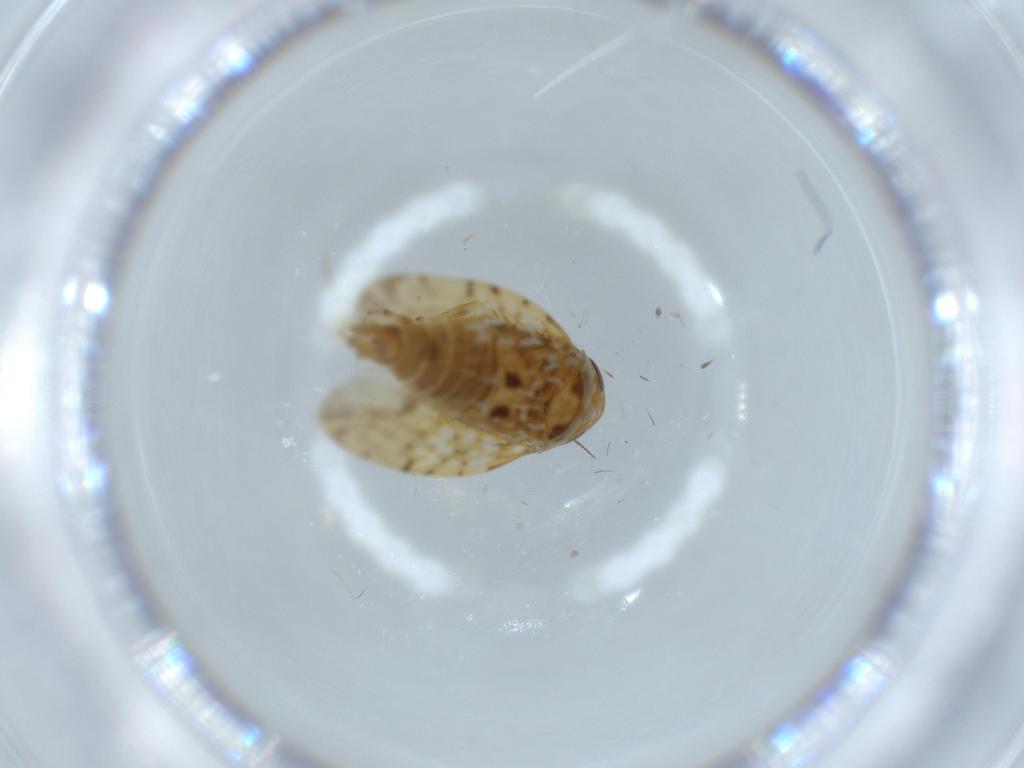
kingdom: Animalia
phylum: Arthropoda
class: Insecta
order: Hemiptera
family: Cicadellidae
